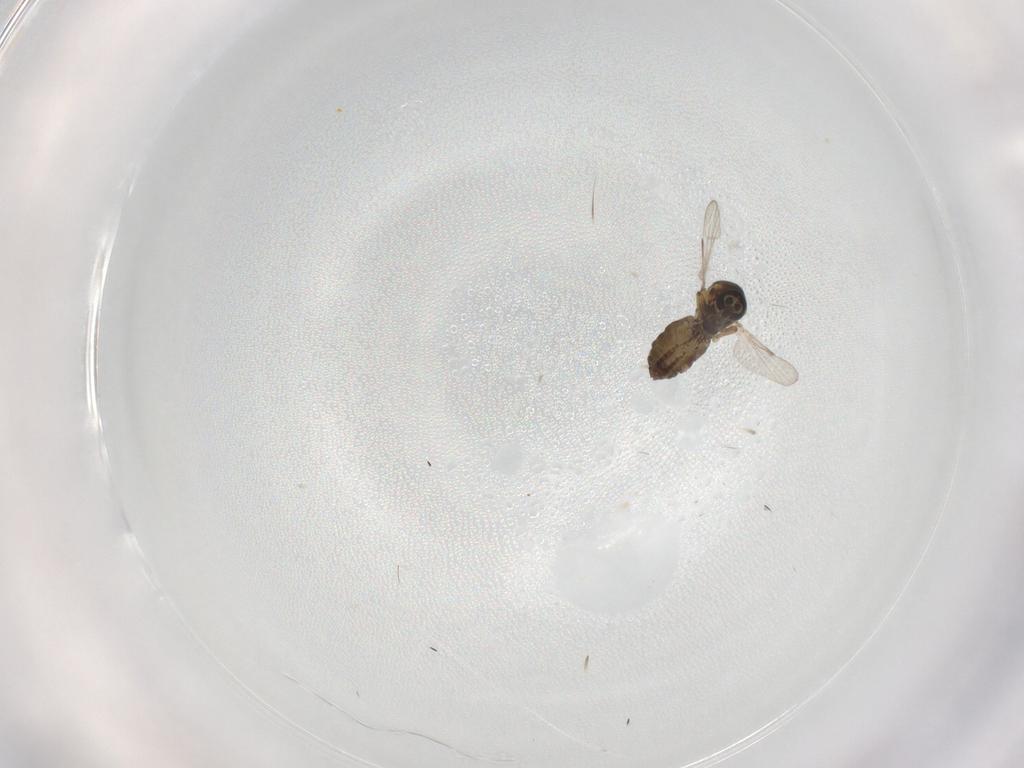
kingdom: Animalia
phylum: Arthropoda
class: Insecta
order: Diptera
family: Ceratopogonidae
